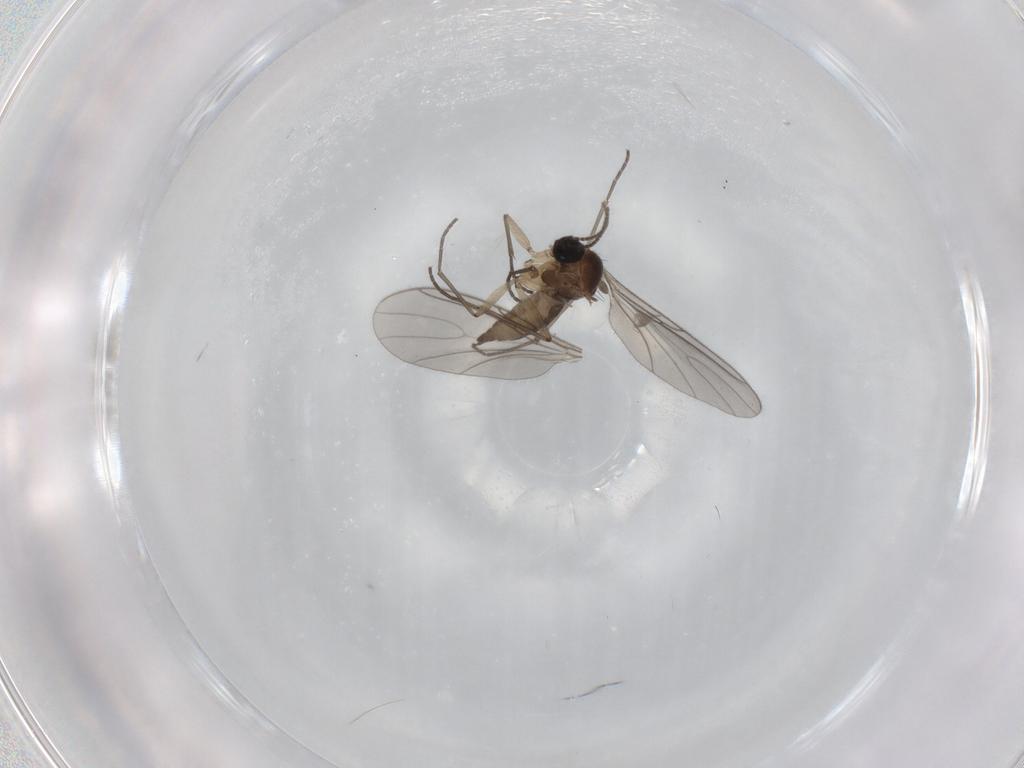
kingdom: Animalia
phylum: Arthropoda
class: Insecta
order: Diptera
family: Sciaridae
